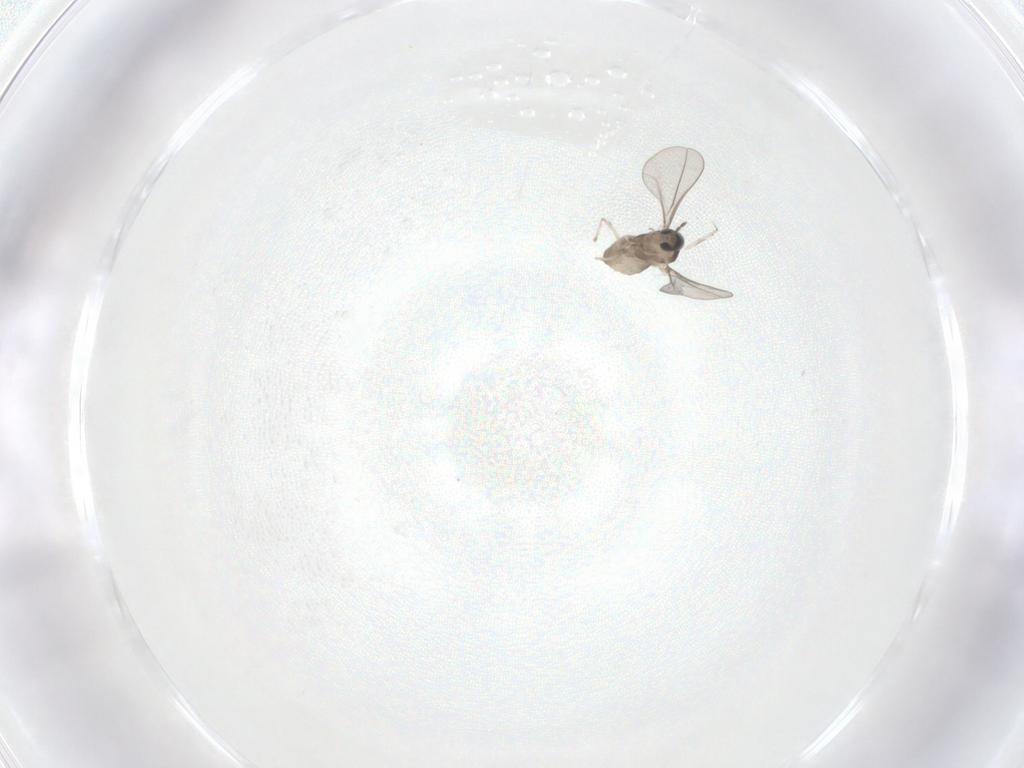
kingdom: Animalia
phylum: Arthropoda
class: Insecta
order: Diptera
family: Cecidomyiidae
